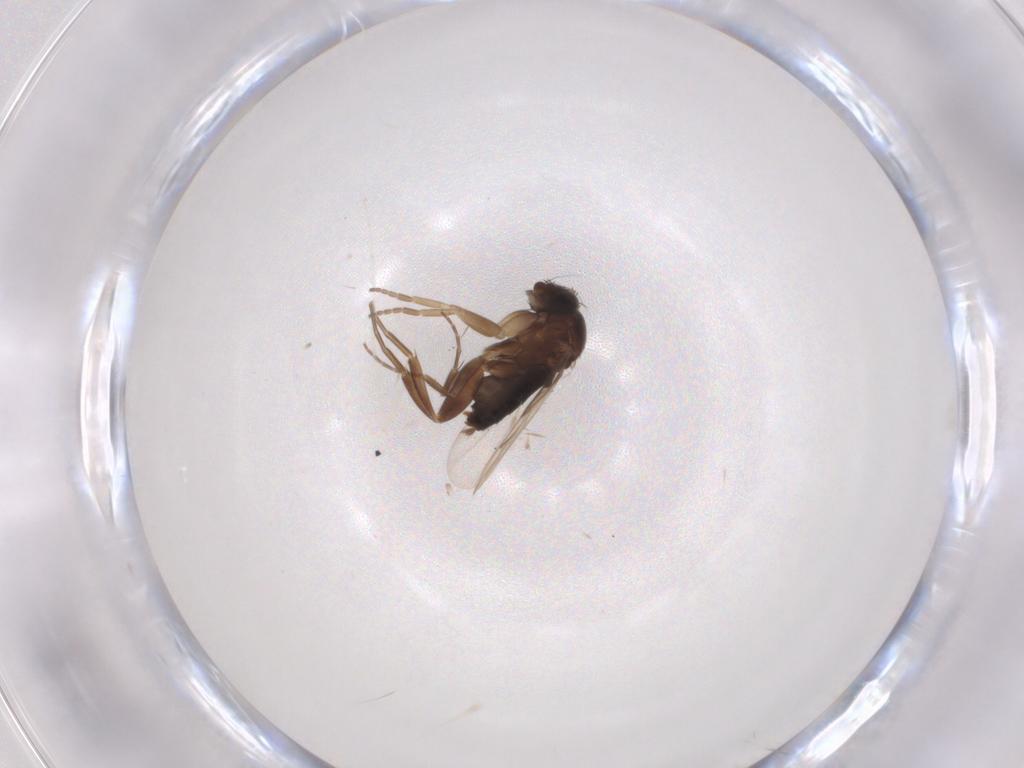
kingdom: Animalia
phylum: Arthropoda
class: Insecta
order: Diptera
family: Phoridae
